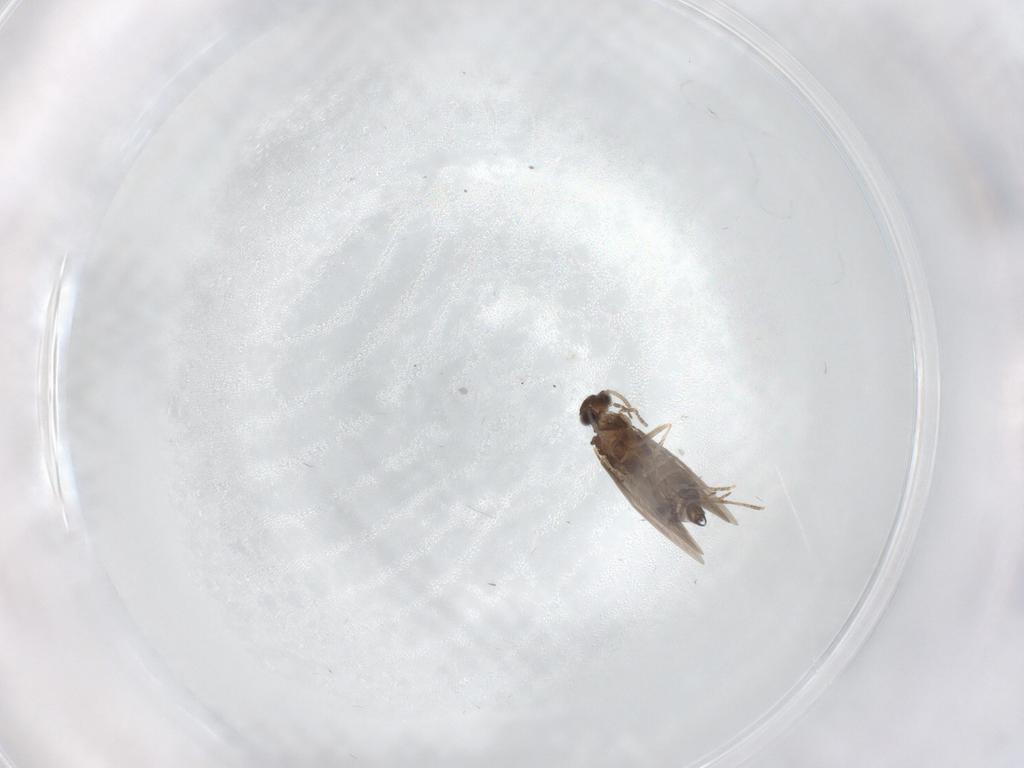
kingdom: Animalia
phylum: Arthropoda
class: Insecta
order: Trichoptera
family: Hydroptilidae
